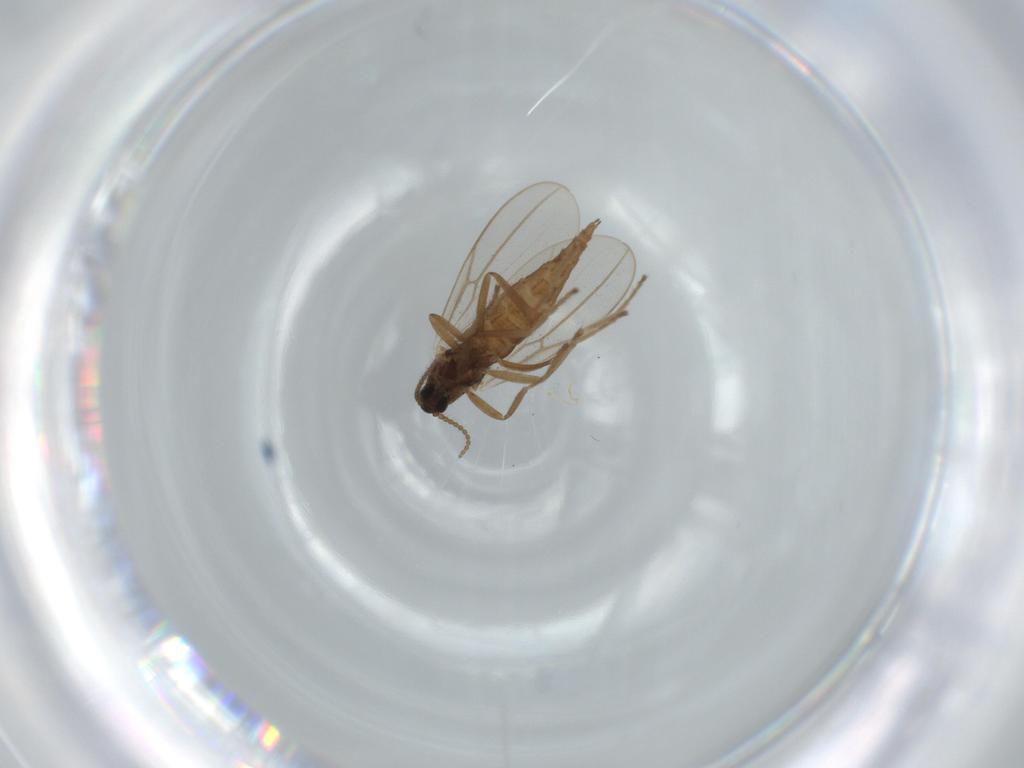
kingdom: Animalia
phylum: Arthropoda
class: Insecta
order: Diptera
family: Cecidomyiidae
